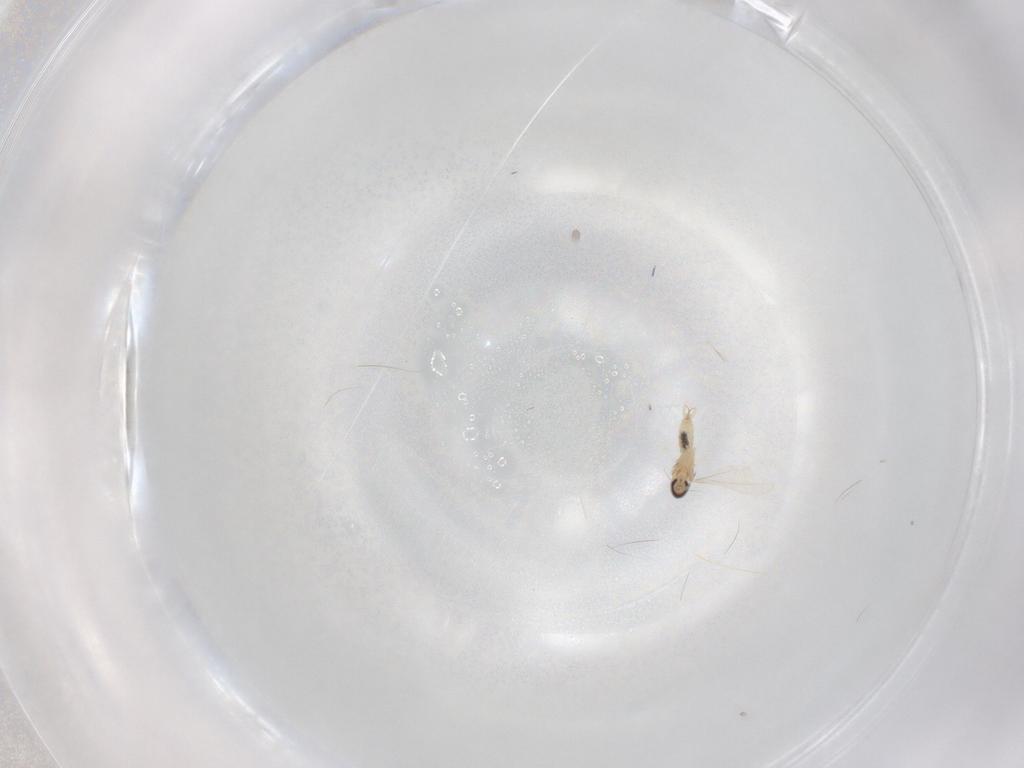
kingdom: Animalia
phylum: Arthropoda
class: Insecta
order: Diptera
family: Cecidomyiidae
